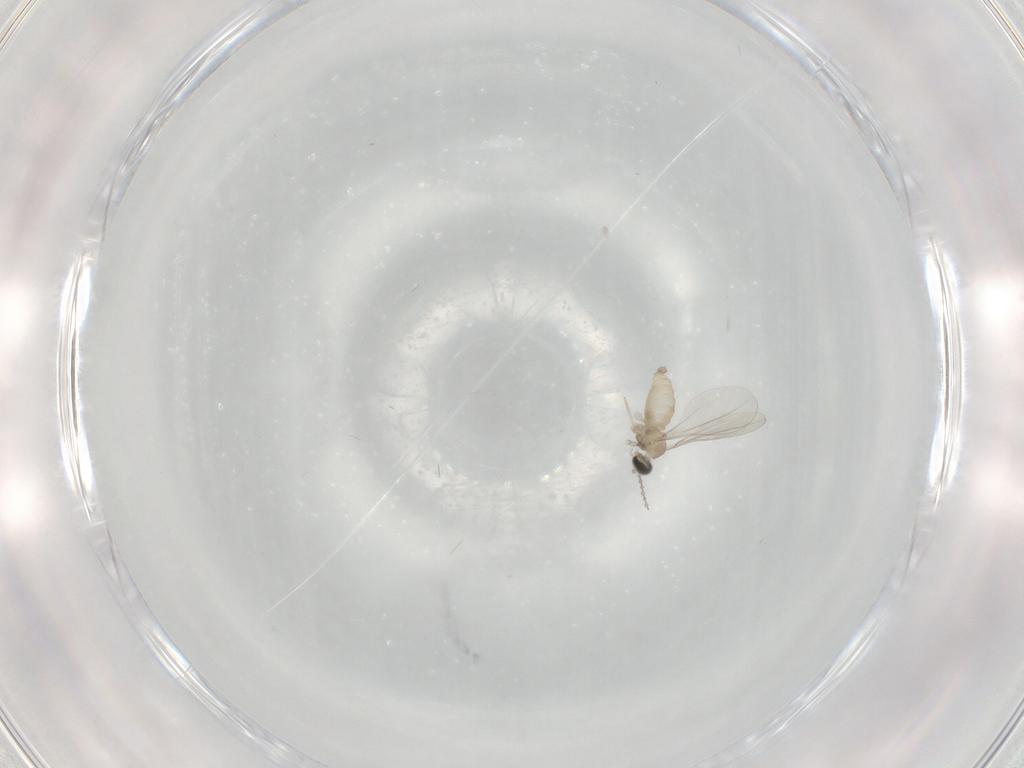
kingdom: Animalia
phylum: Arthropoda
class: Insecta
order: Diptera
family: Cecidomyiidae
